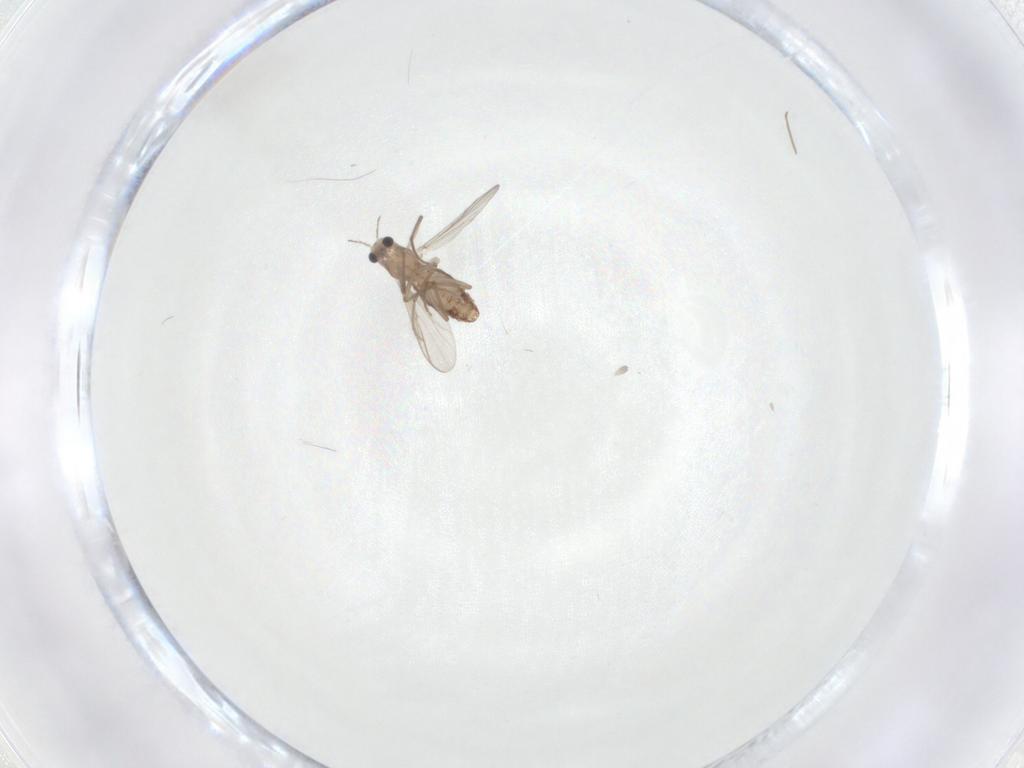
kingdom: Animalia
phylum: Arthropoda
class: Insecta
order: Diptera
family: Chironomidae
